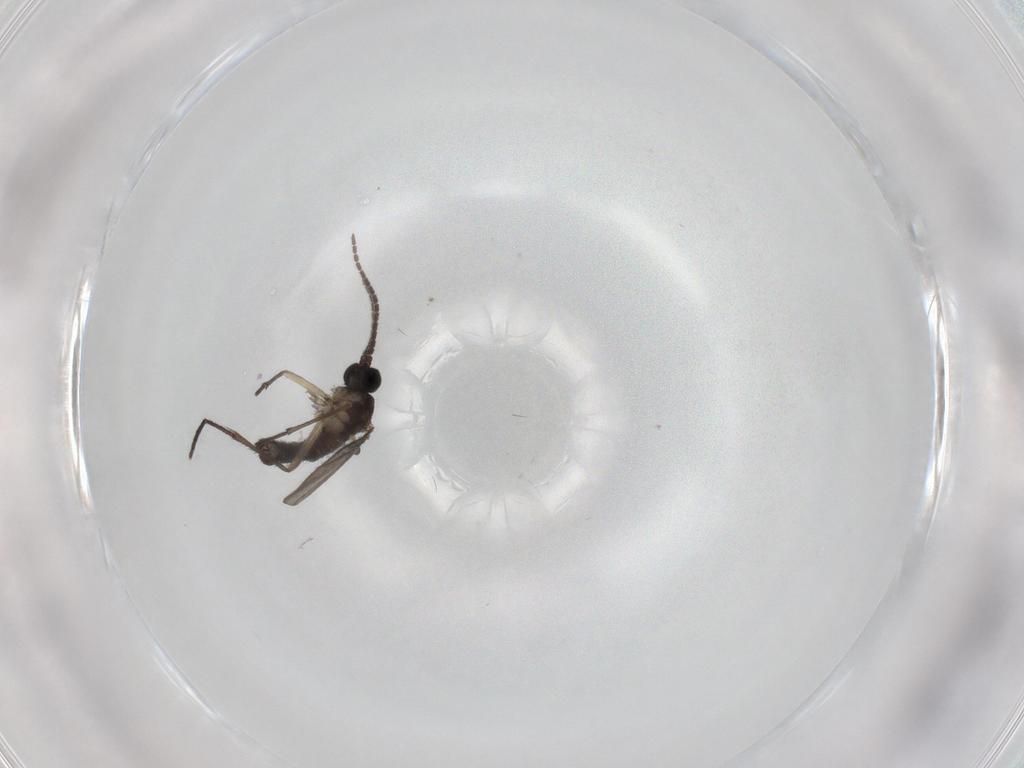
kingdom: Animalia
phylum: Arthropoda
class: Insecta
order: Diptera
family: Sciaridae
